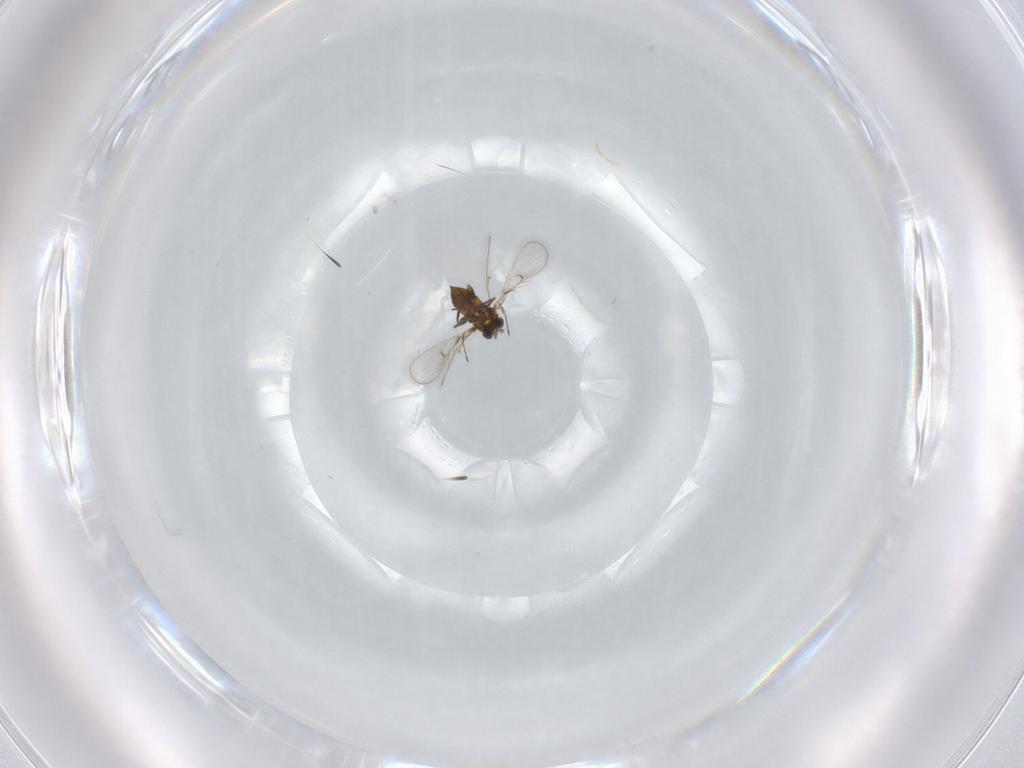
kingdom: Animalia
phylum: Arthropoda
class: Insecta
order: Hymenoptera
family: Trichogrammatidae
